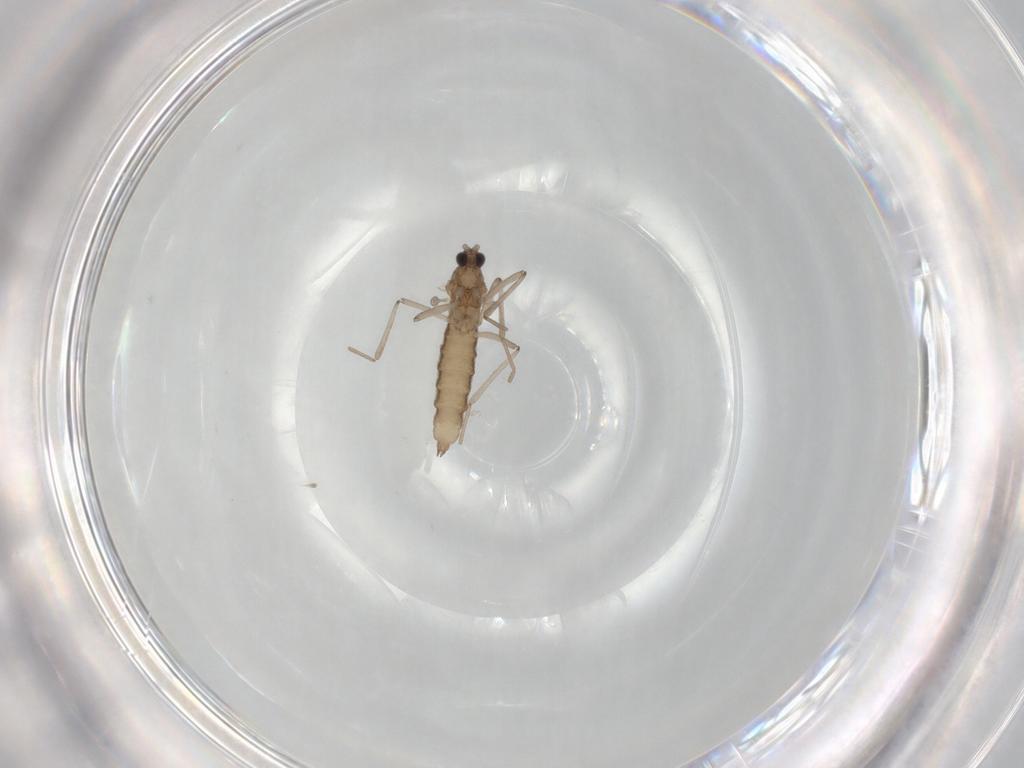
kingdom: Animalia
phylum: Arthropoda
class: Insecta
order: Diptera
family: Cecidomyiidae
